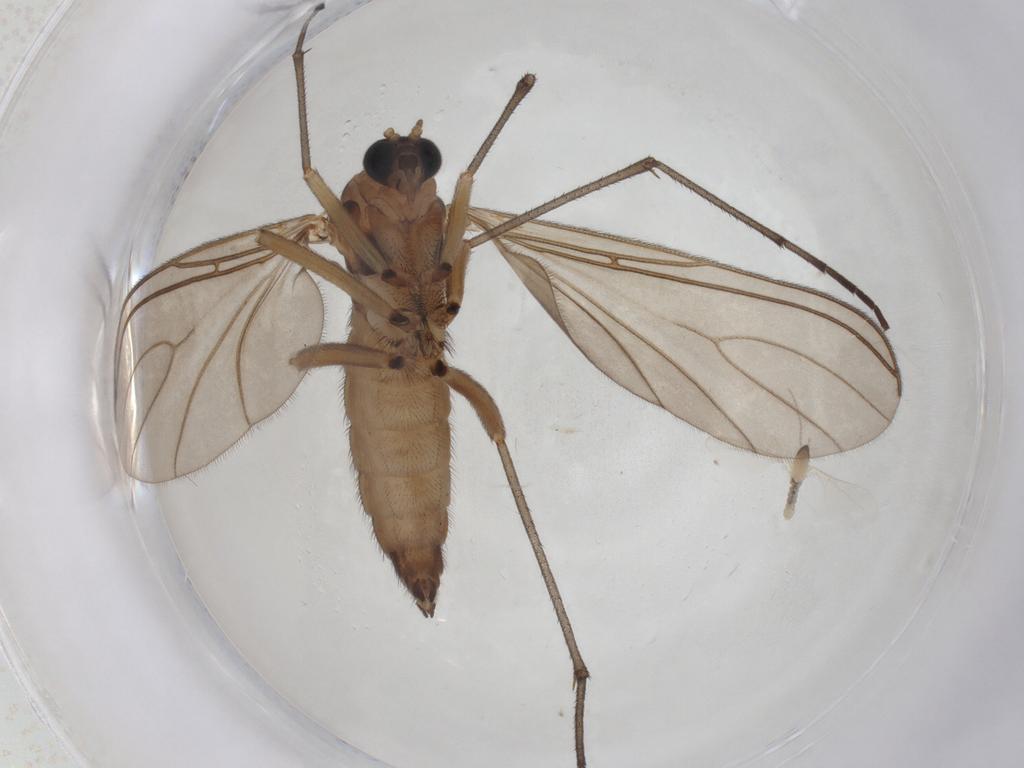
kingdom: Animalia
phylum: Arthropoda
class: Insecta
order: Diptera
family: Sciaridae
